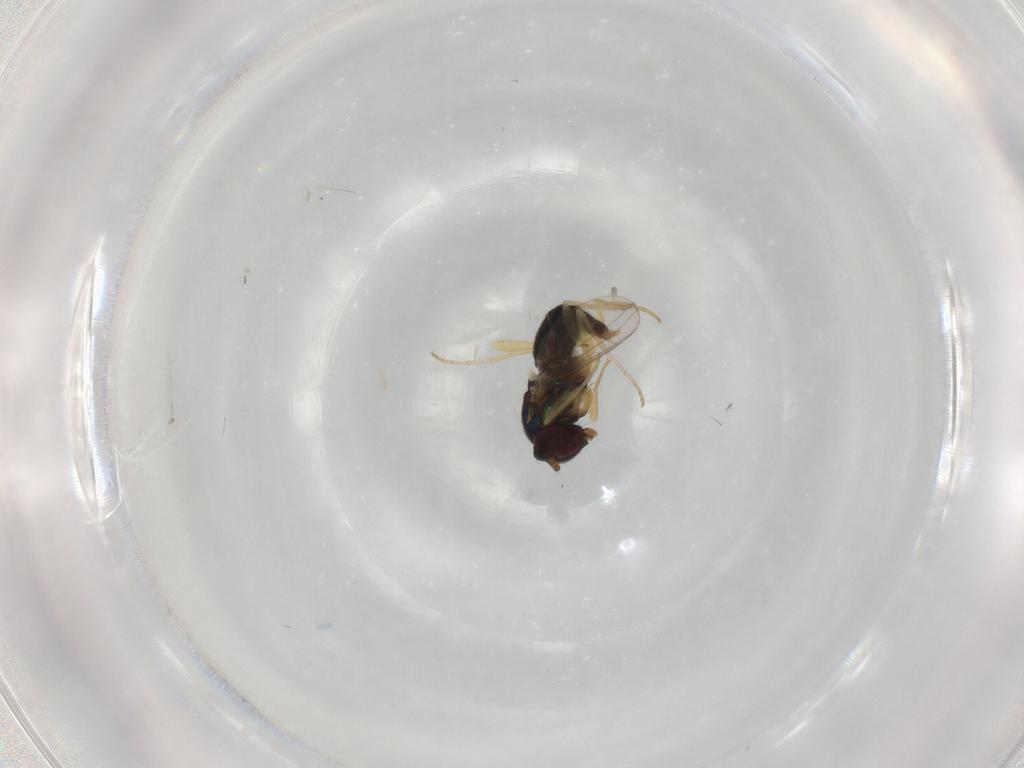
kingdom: Animalia
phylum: Arthropoda
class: Insecta
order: Diptera
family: Dolichopodidae
